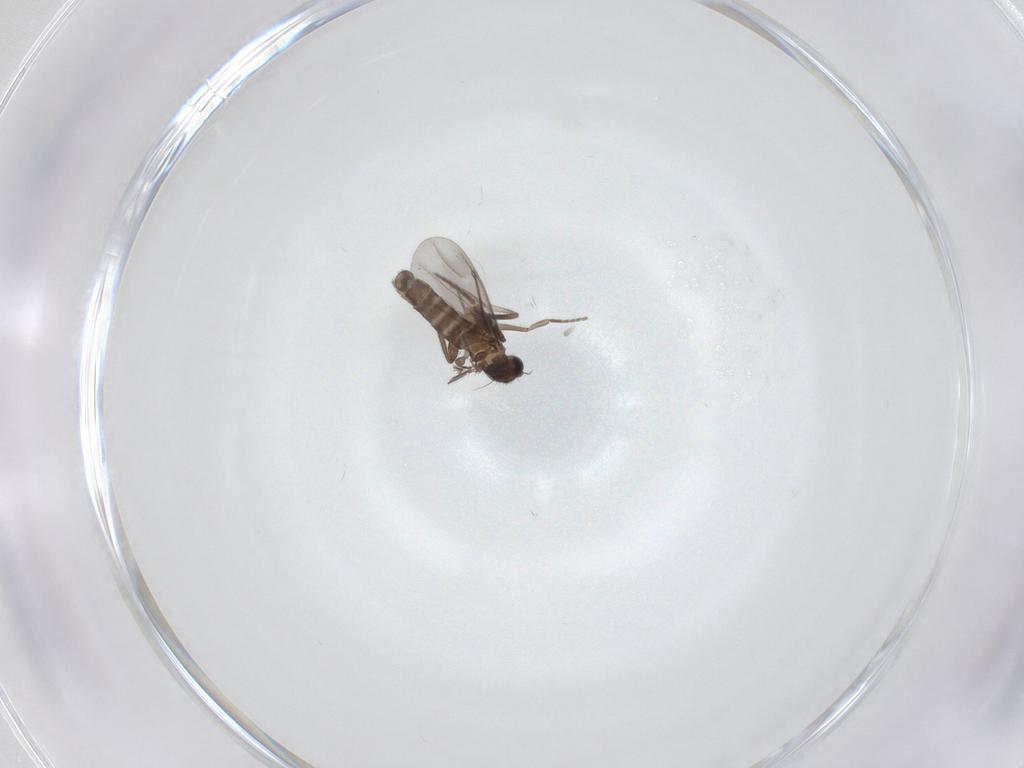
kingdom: Animalia
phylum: Arthropoda
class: Insecta
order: Diptera
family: Phoridae
